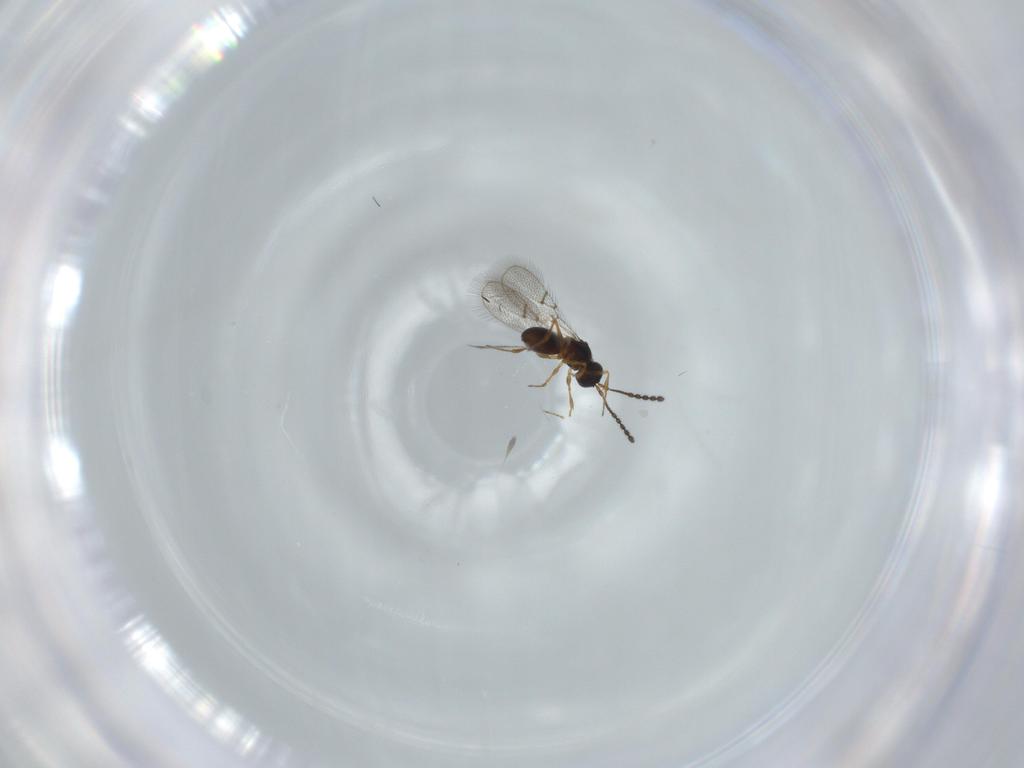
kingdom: Animalia
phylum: Arthropoda
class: Insecta
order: Hymenoptera
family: Figitidae
